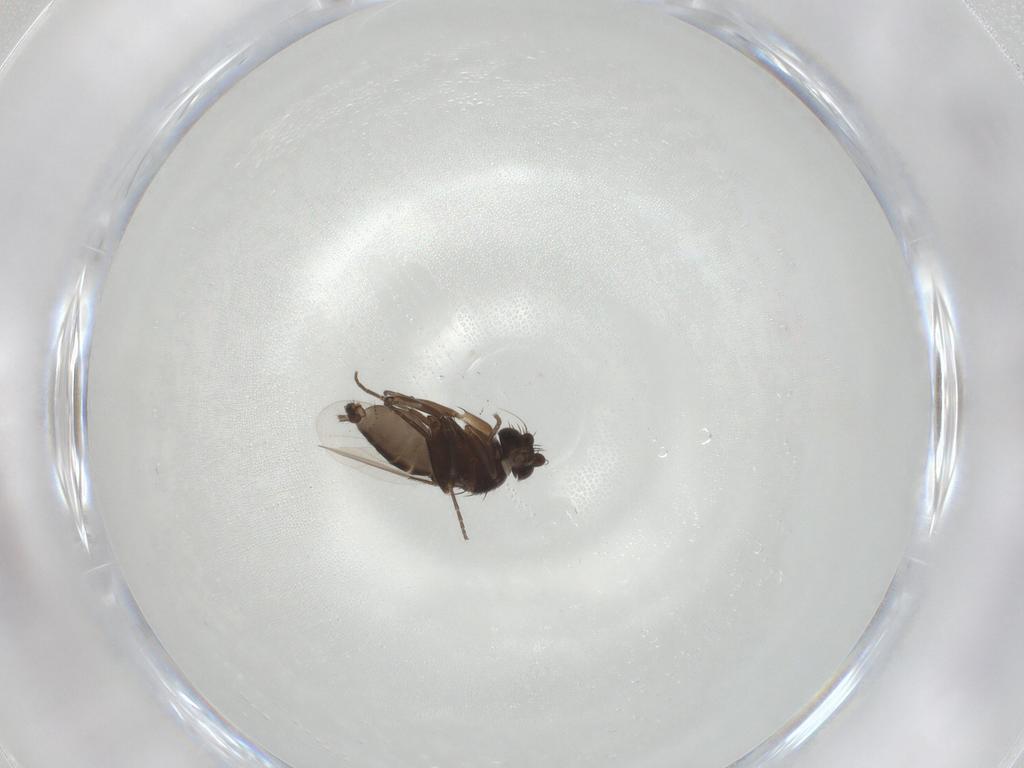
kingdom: Animalia
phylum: Arthropoda
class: Insecta
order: Diptera
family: Phoridae
